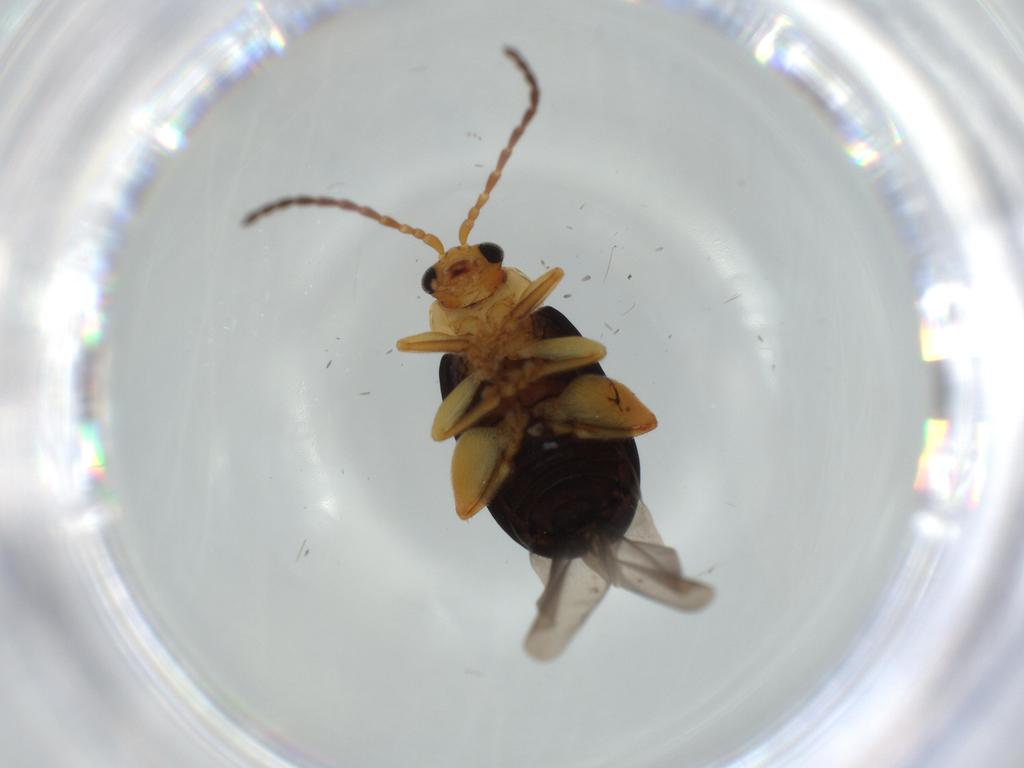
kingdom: Animalia
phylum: Arthropoda
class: Insecta
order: Coleoptera
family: Chrysomelidae
